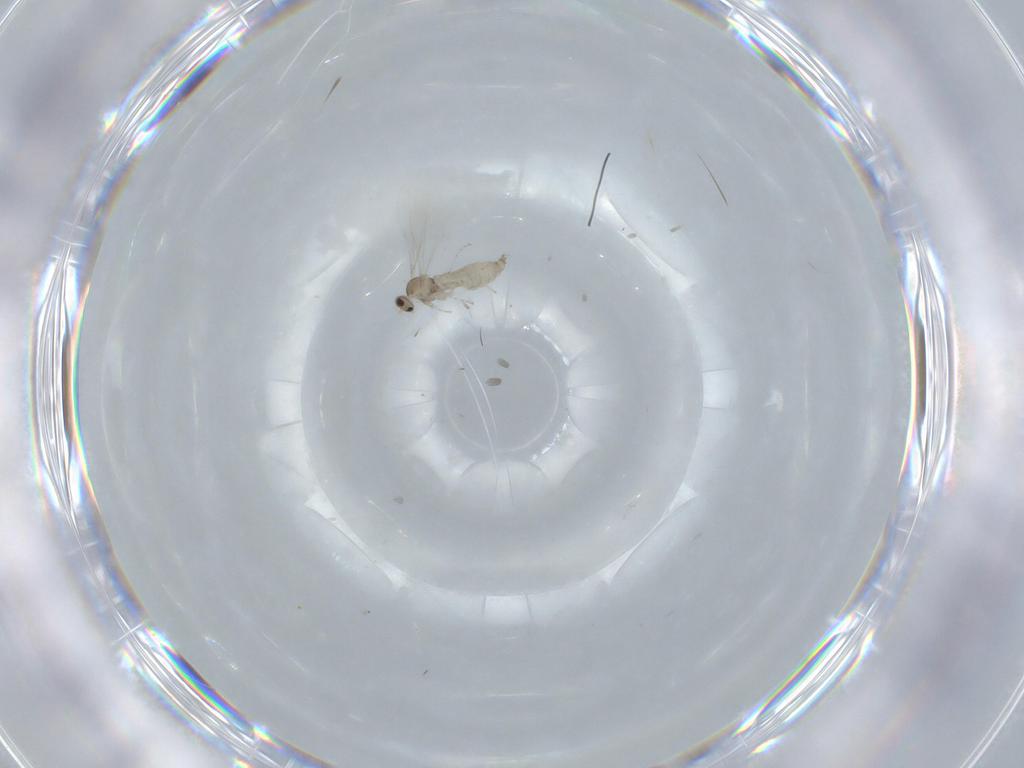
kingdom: Animalia
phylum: Arthropoda
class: Insecta
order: Diptera
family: Cecidomyiidae
